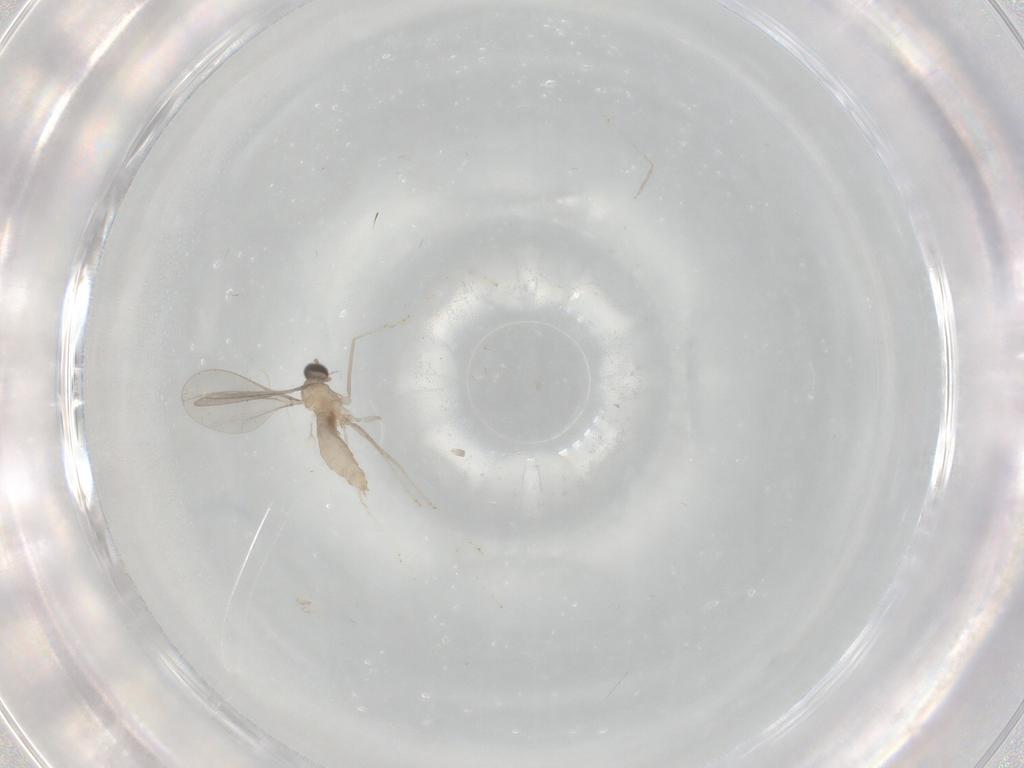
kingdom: Animalia
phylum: Arthropoda
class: Insecta
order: Diptera
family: Cecidomyiidae
